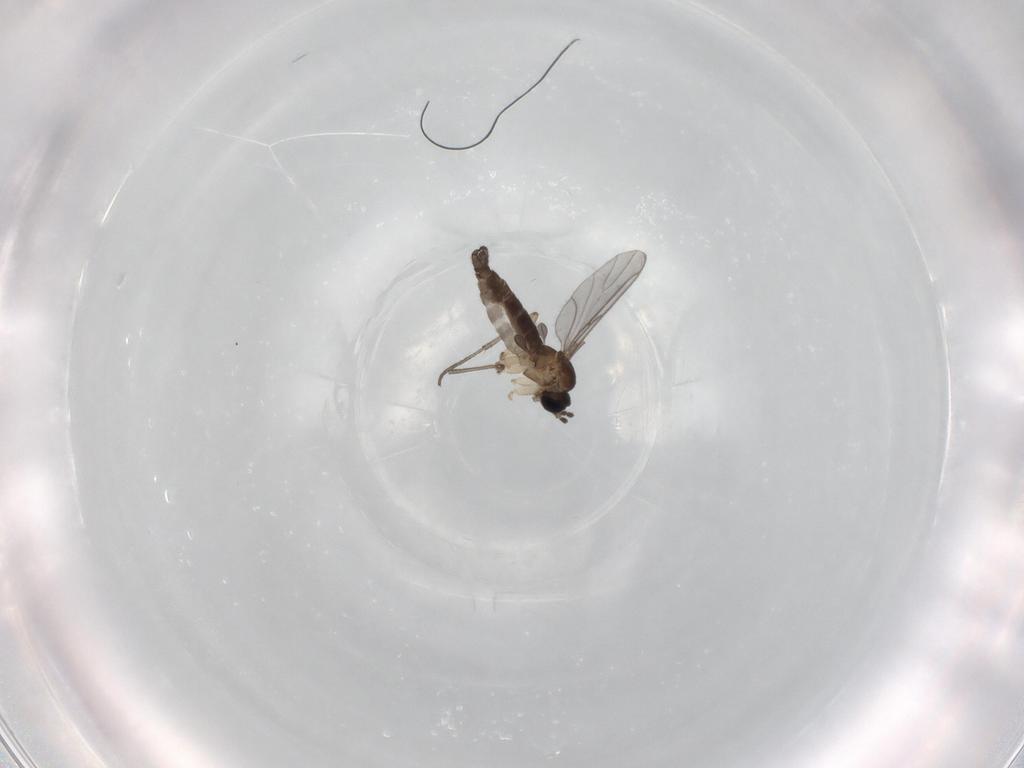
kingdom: Animalia
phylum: Arthropoda
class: Insecta
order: Diptera
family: Sciaridae
